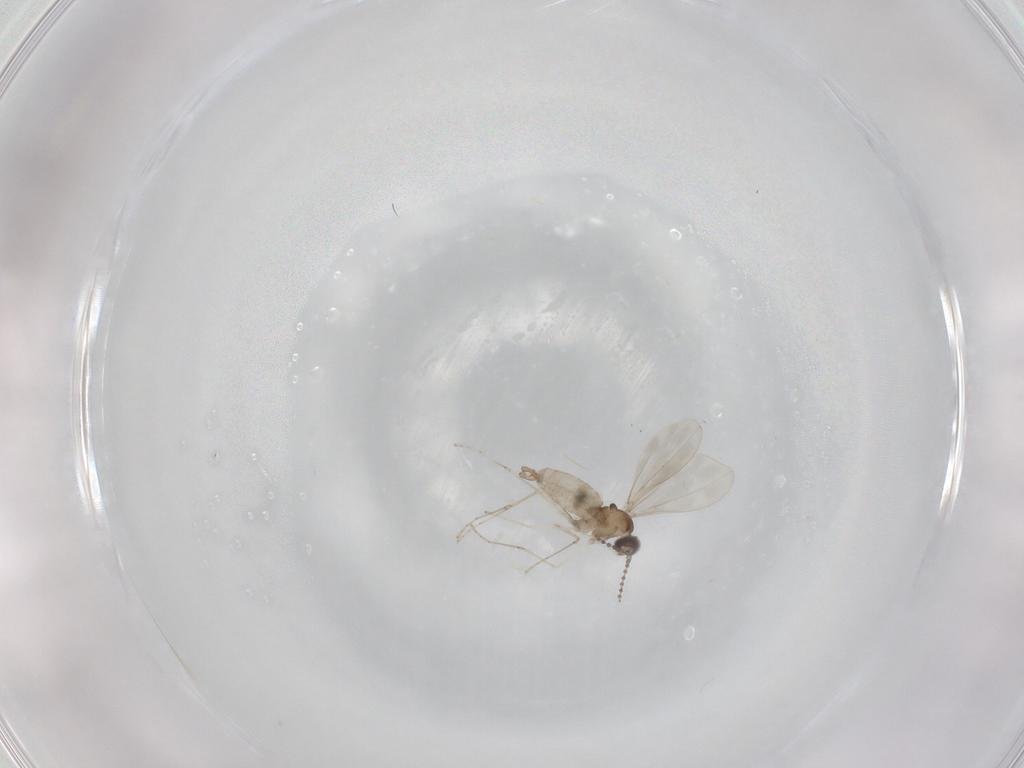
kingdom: Animalia
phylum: Arthropoda
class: Insecta
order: Diptera
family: Cecidomyiidae
